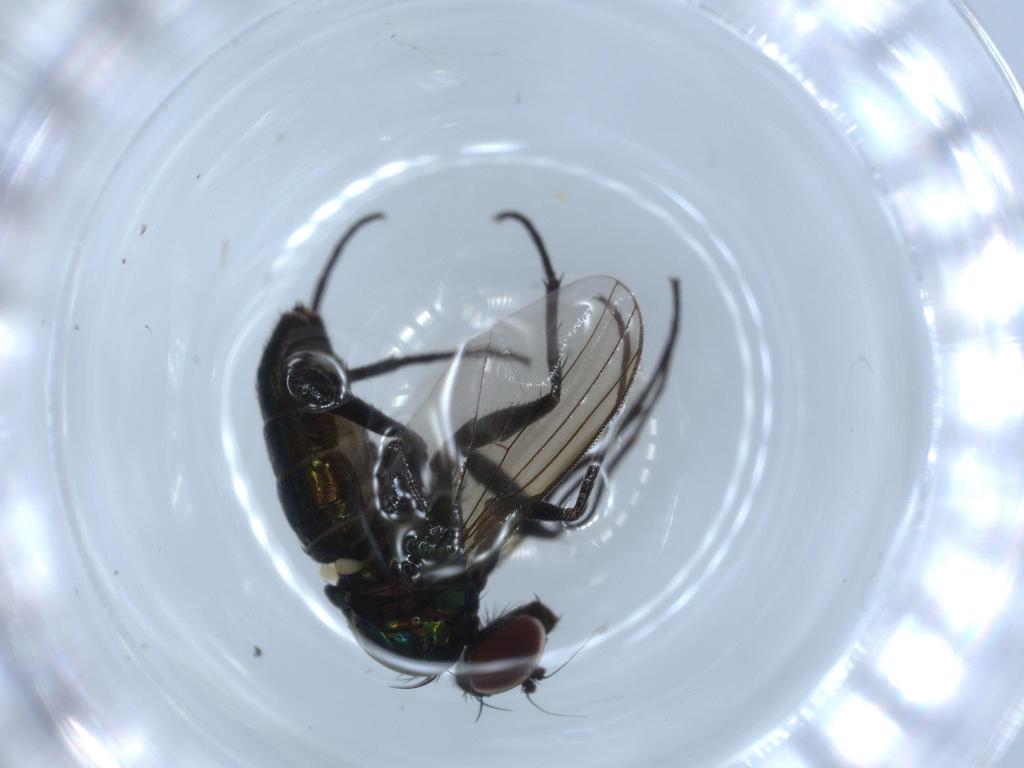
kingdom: Animalia
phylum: Arthropoda
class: Insecta
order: Diptera
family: Dolichopodidae
